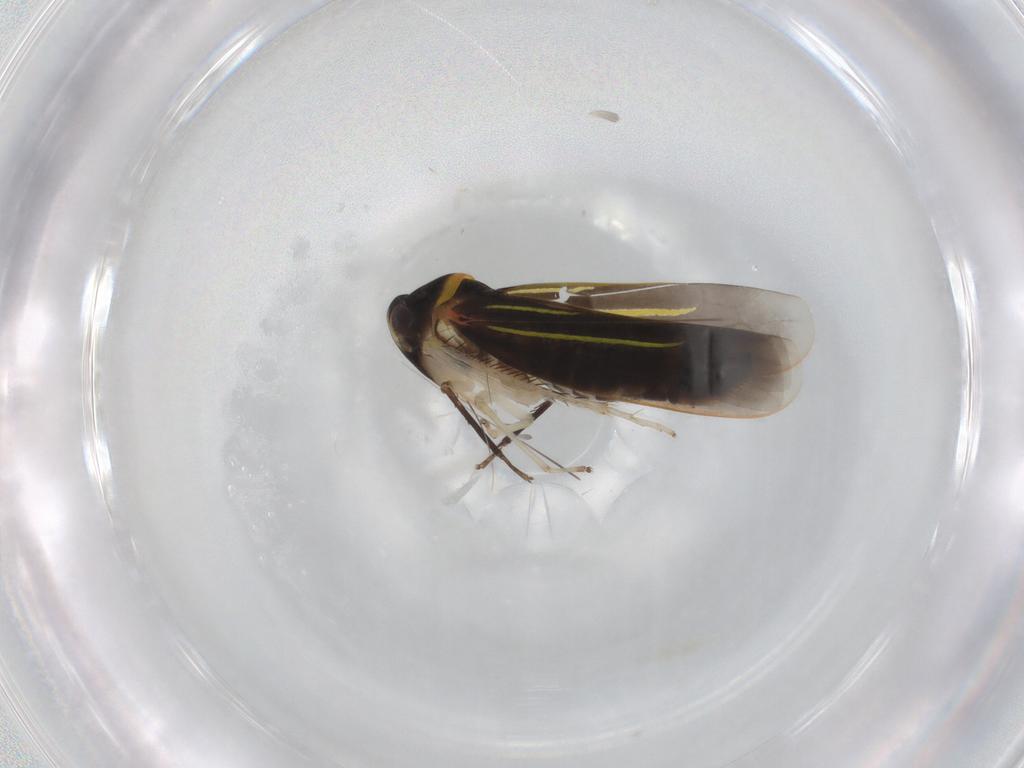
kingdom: Animalia
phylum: Arthropoda
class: Insecta
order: Hemiptera
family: Cicadellidae
